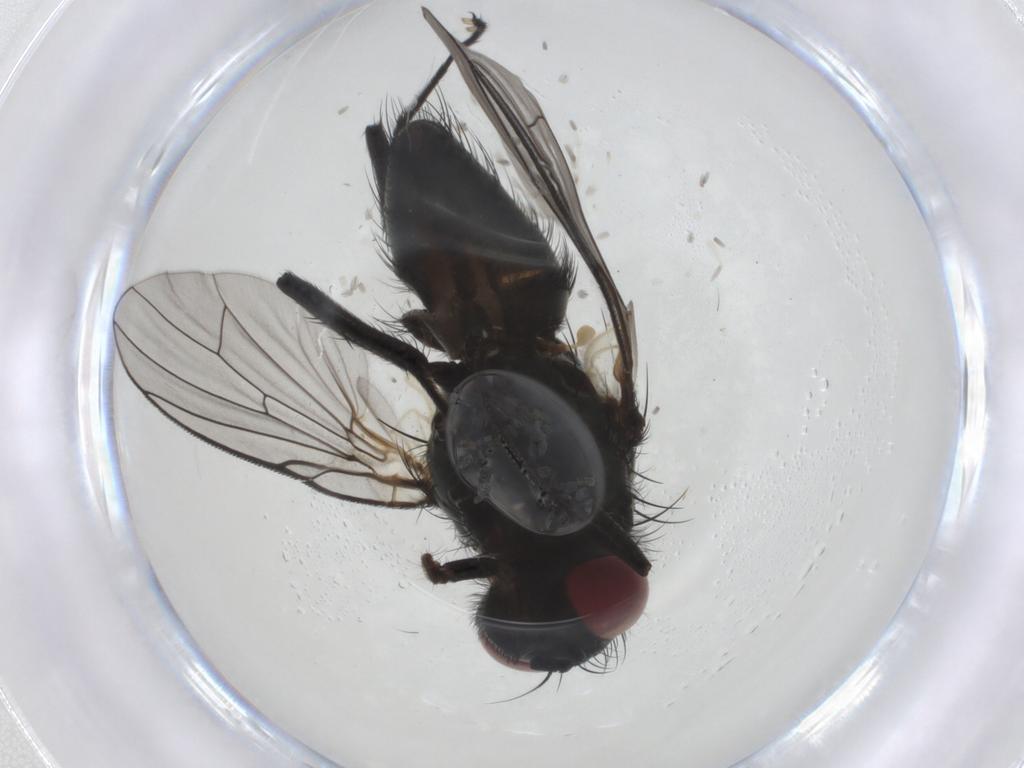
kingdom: Animalia
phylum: Arthropoda
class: Insecta
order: Diptera
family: Muscidae
